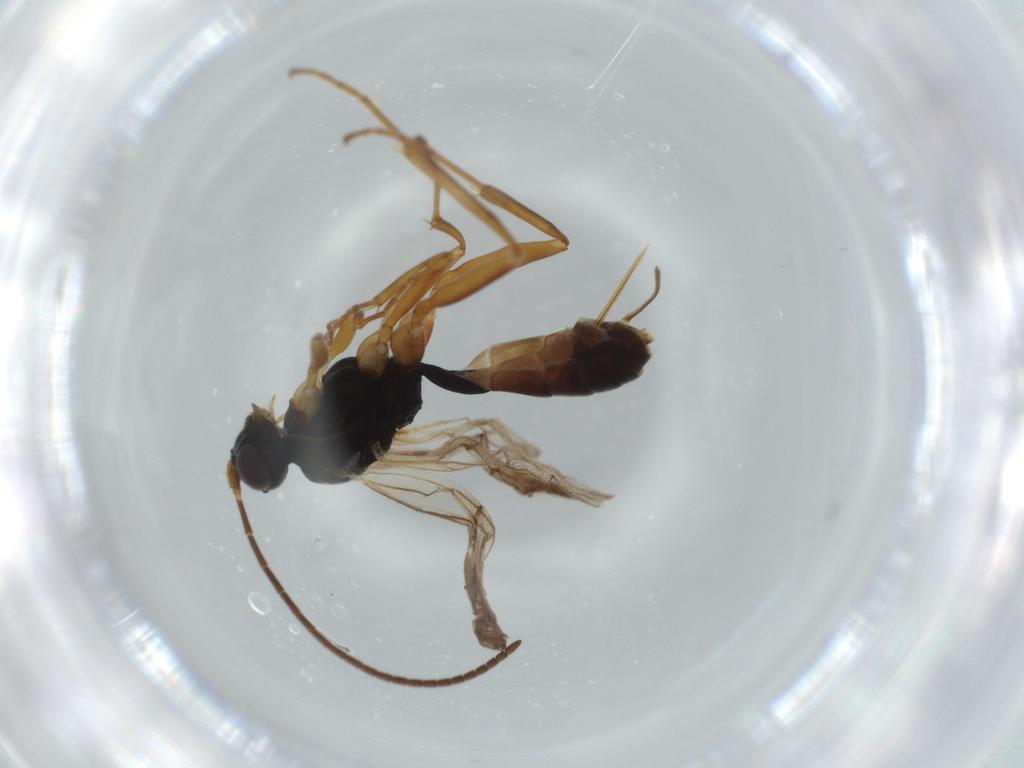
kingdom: Animalia
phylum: Arthropoda
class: Insecta
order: Hymenoptera
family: Ichneumonidae
